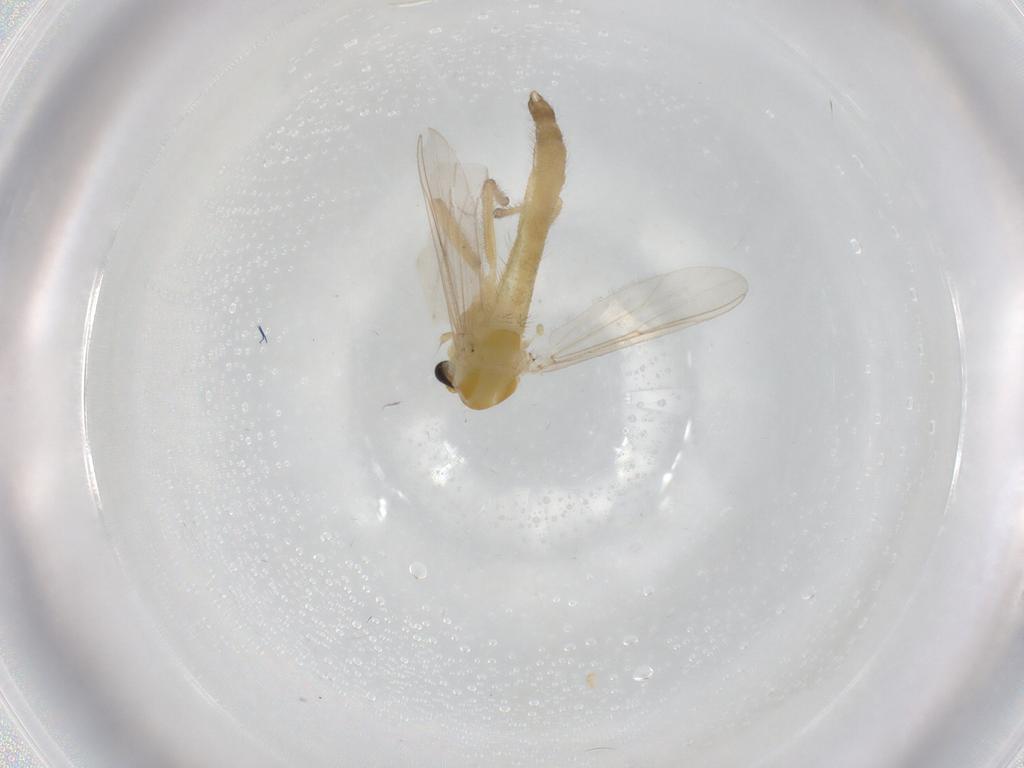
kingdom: Animalia
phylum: Arthropoda
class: Insecta
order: Diptera
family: Chironomidae
